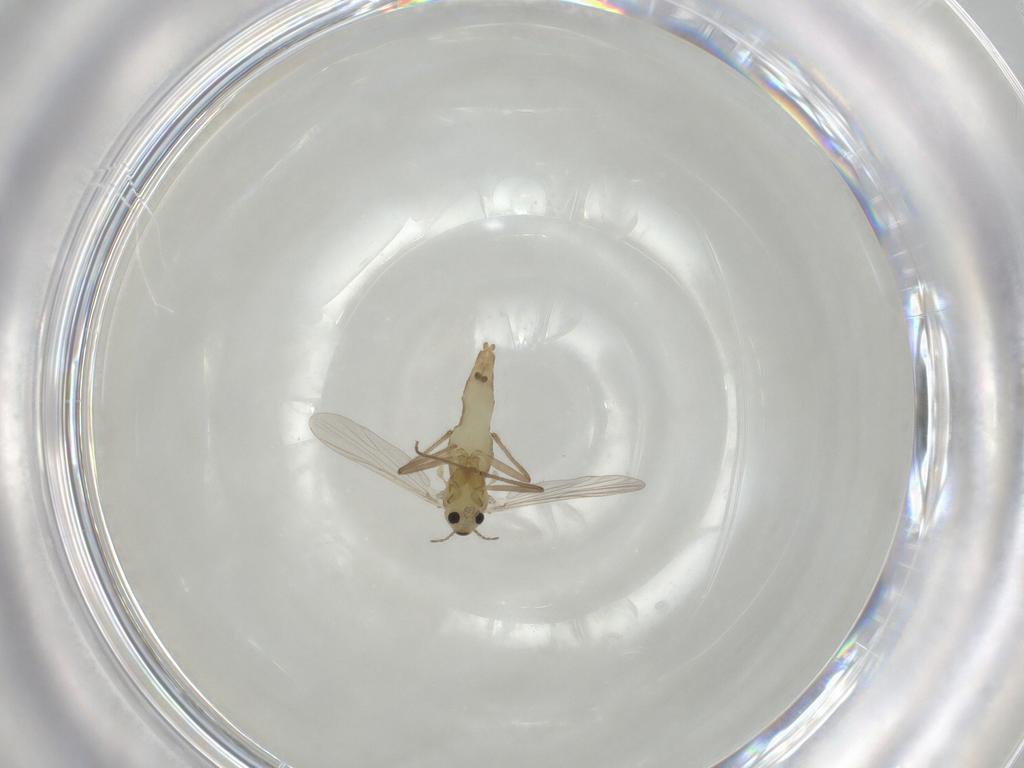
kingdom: Animalia
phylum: Arthropoda
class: Insecta
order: Diptera
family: Chironomidae
